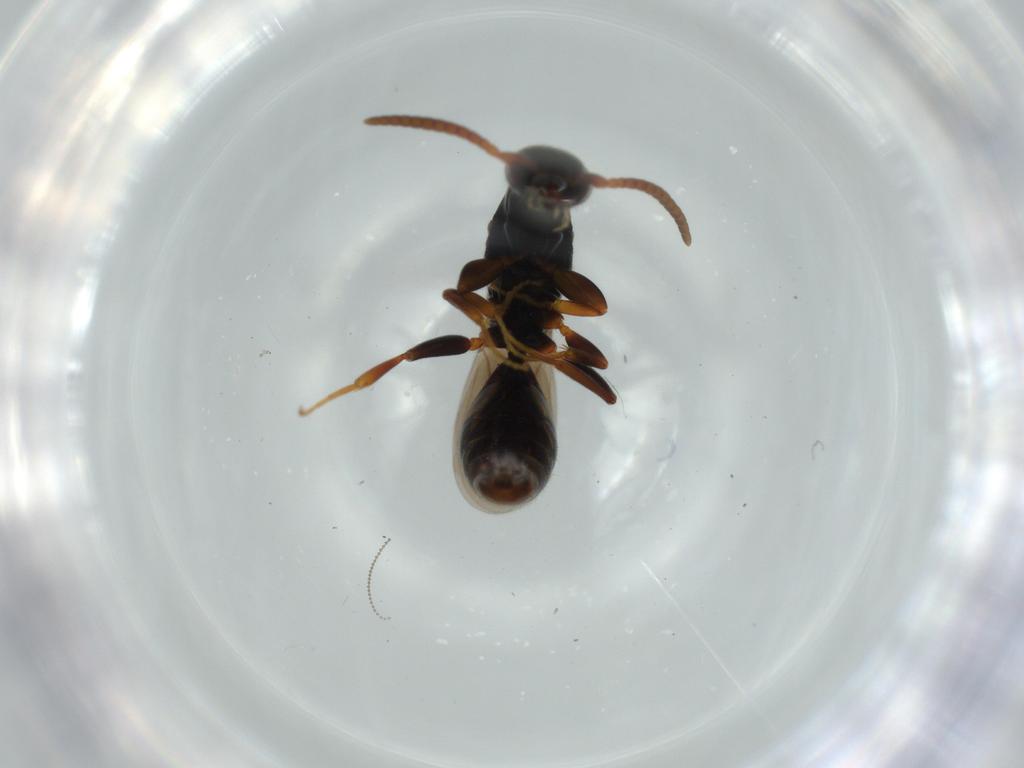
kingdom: Animalia
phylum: Arthropoda
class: Insecta
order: Hymenoptera
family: Bethylidae
